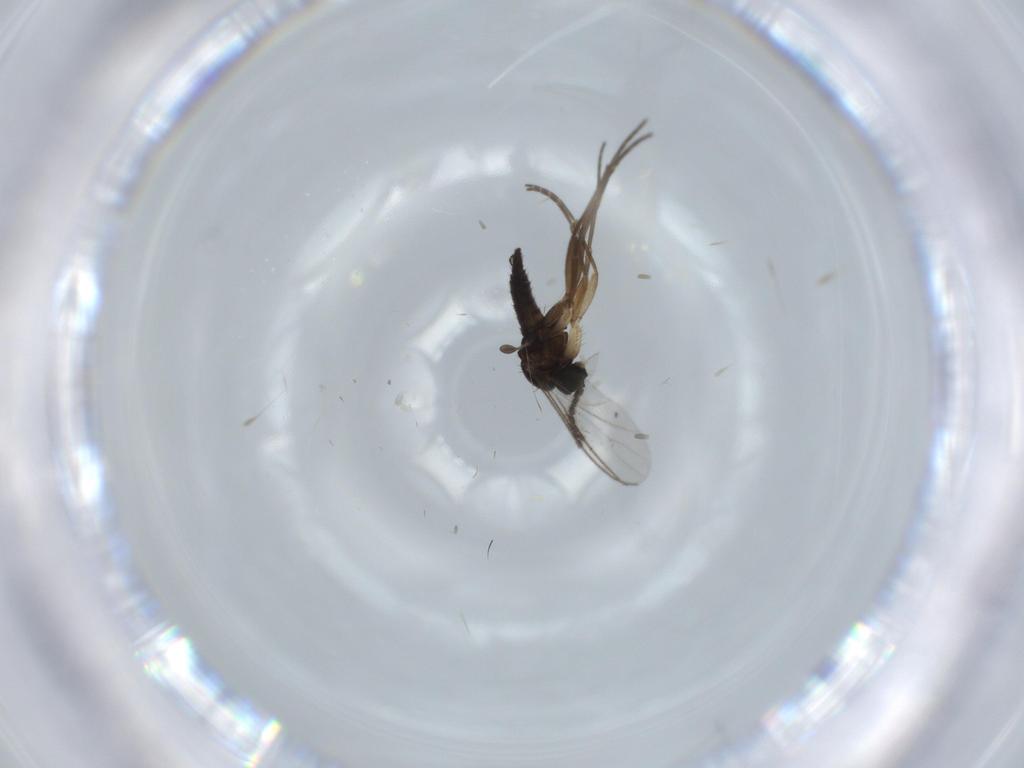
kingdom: Animalia
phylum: Arthropoda
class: Insecta
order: Diptera
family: Sciaridae
